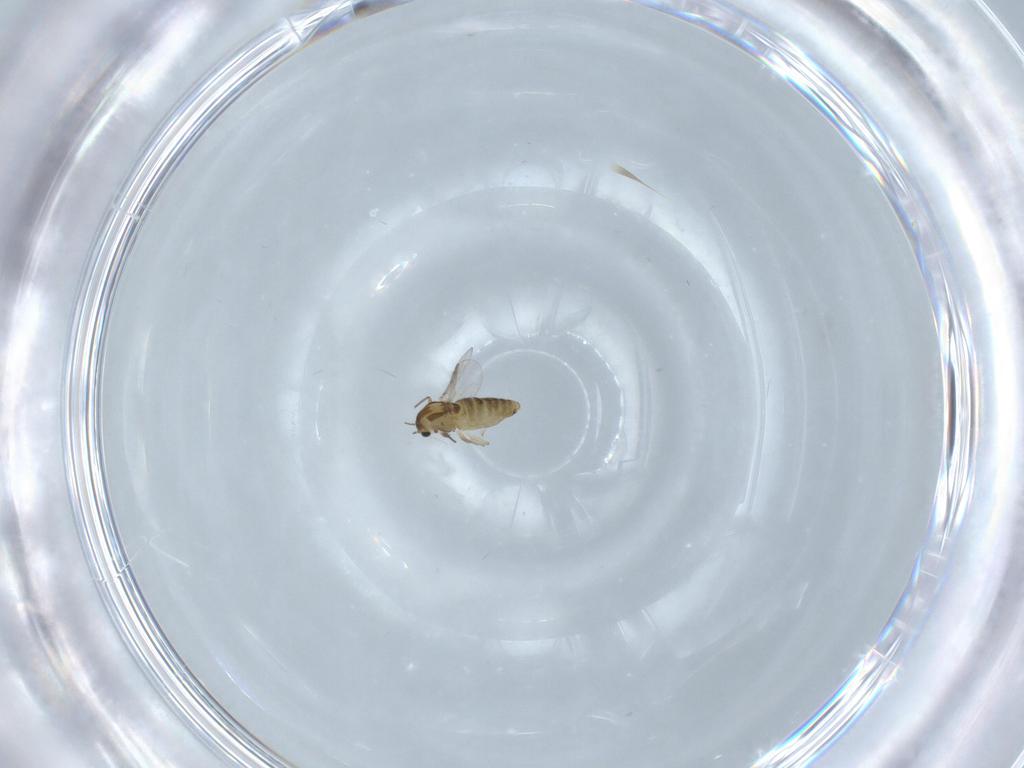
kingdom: Animalia
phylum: Arthropoda
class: Insecta
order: Diptera
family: Chironomidae
